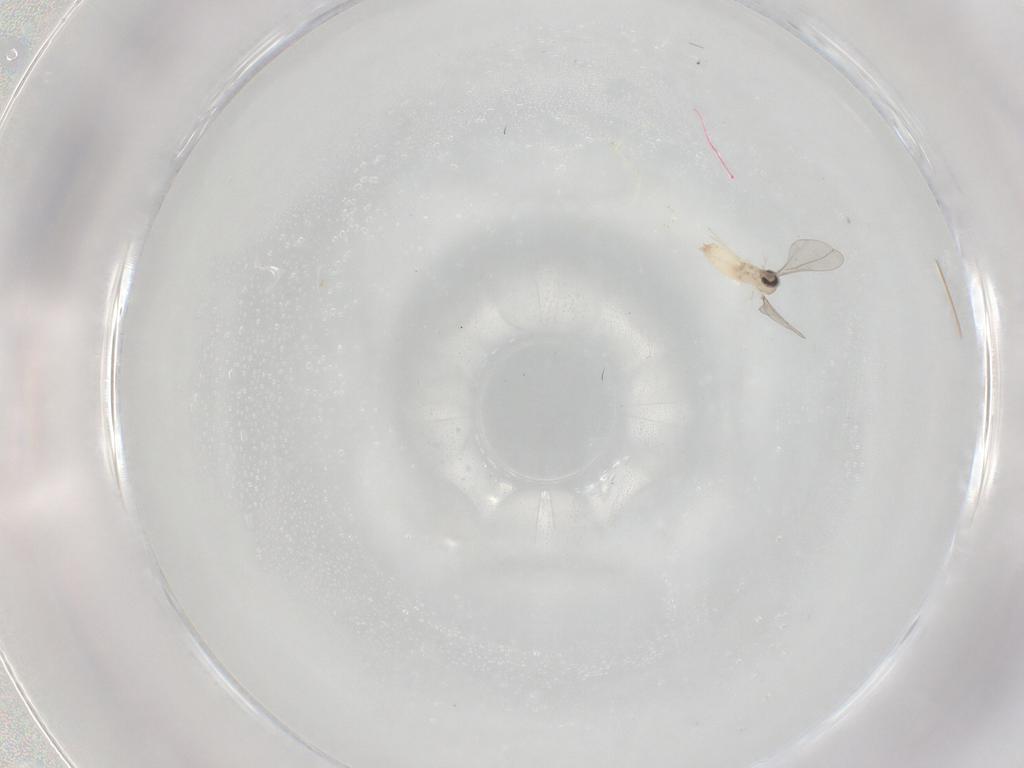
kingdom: Animalia
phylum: Arthropoda
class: Insecta
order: Diptera
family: Cecidomyiidae
